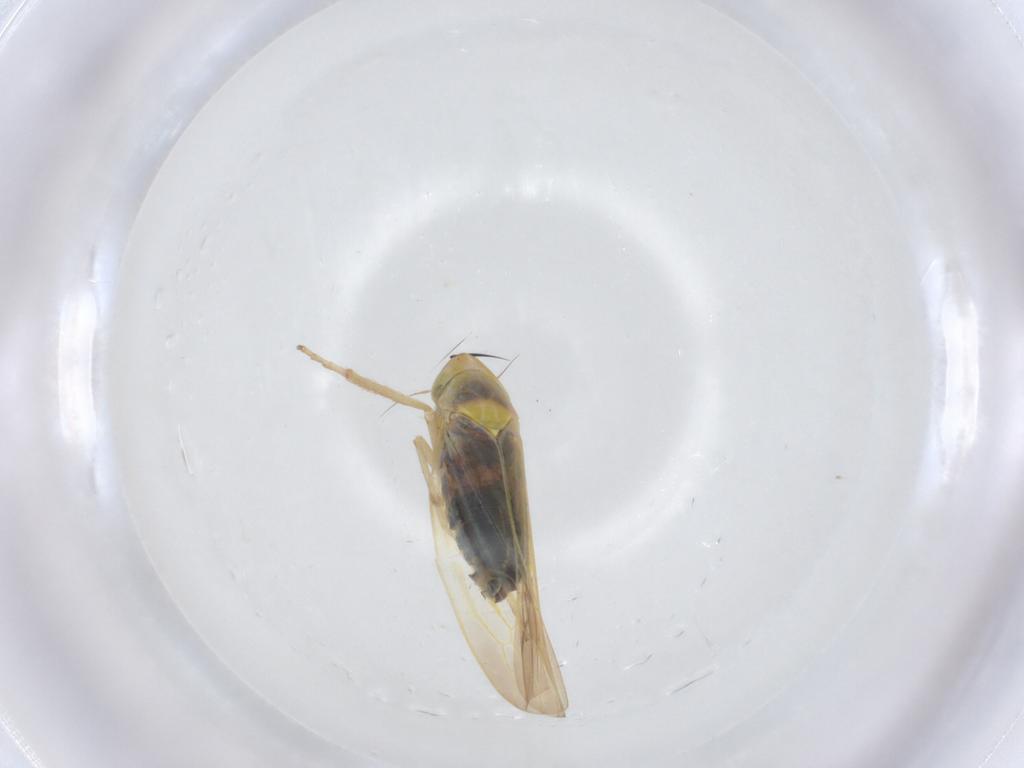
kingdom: Animalia
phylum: Arthropoda
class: Insecta
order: Hemiptera
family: Cicadellidae
